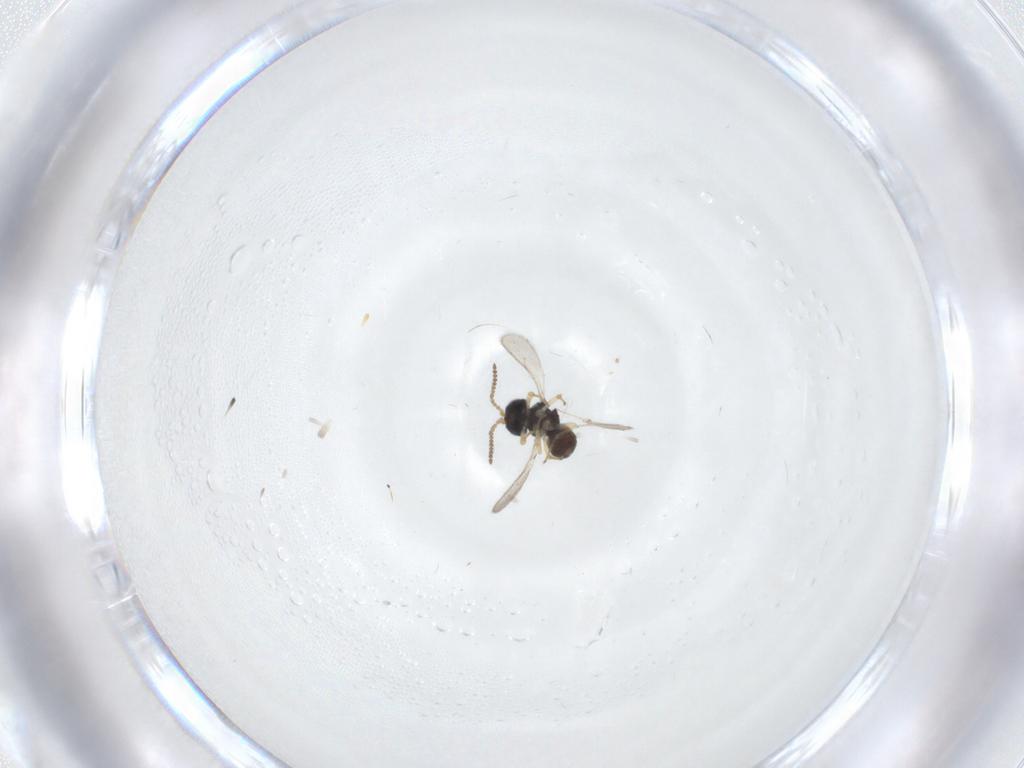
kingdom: Animalia
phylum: Arthropoda
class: Insecta
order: Hymenoptera
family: Scelionidae
